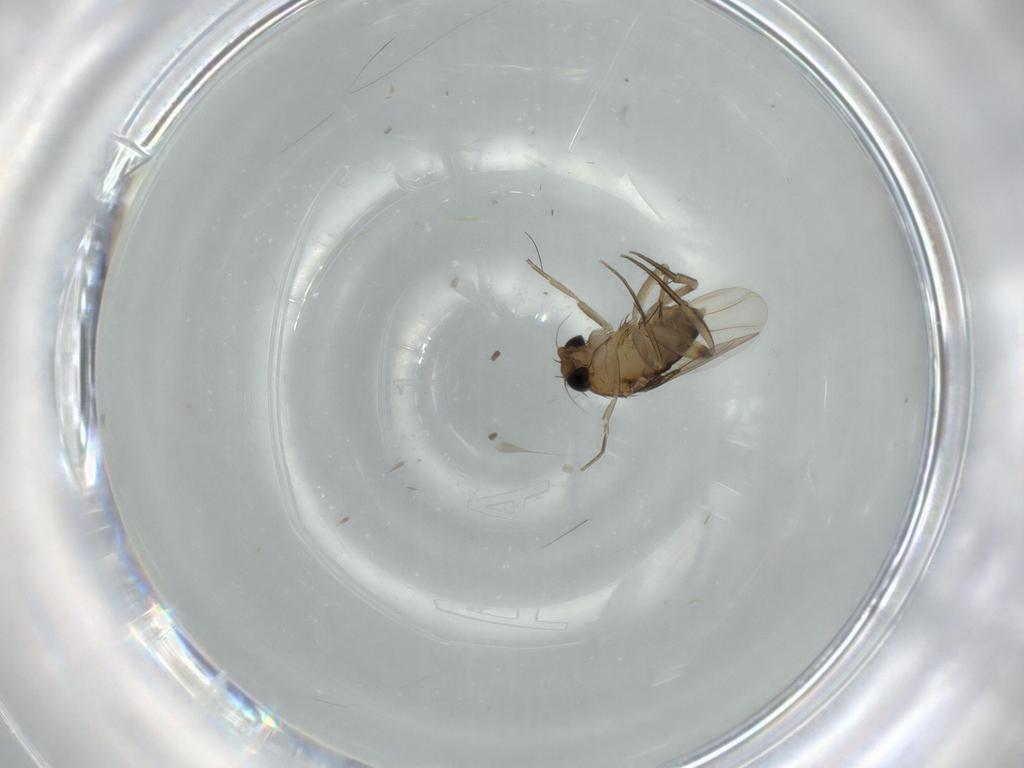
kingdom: Animalia
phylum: Arthropoda
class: Insecta
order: Diptera
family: Phoridae
